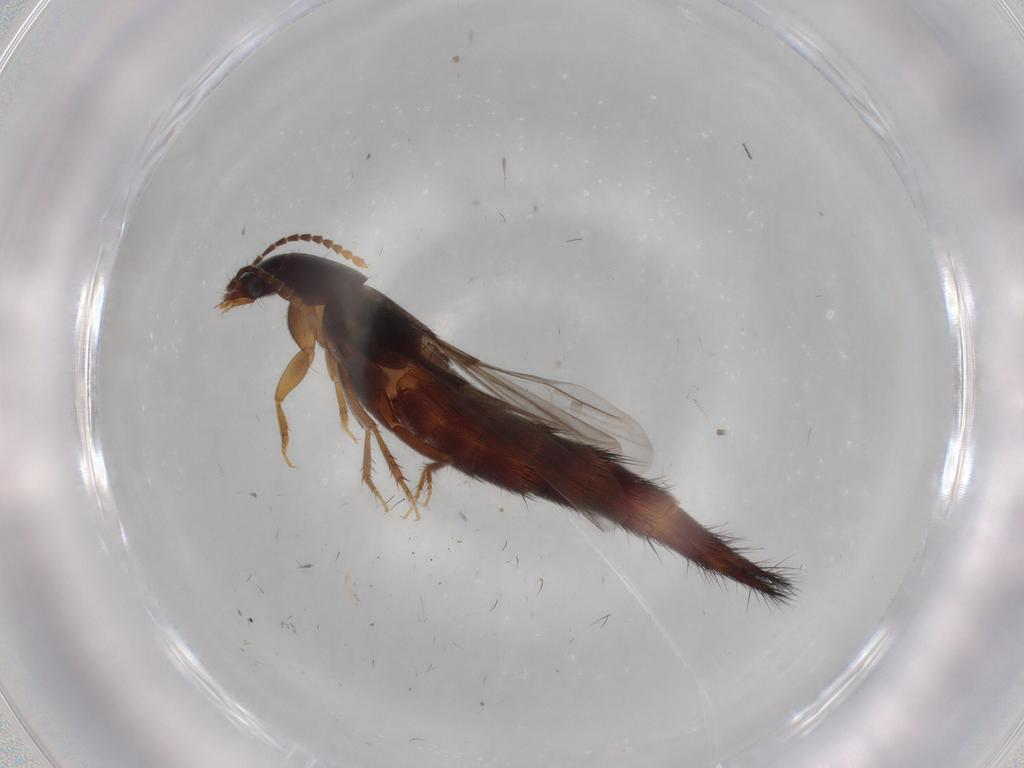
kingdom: Animalia
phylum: Arthropoda
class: Insecta
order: Coleoptera
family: Staphylinidae
